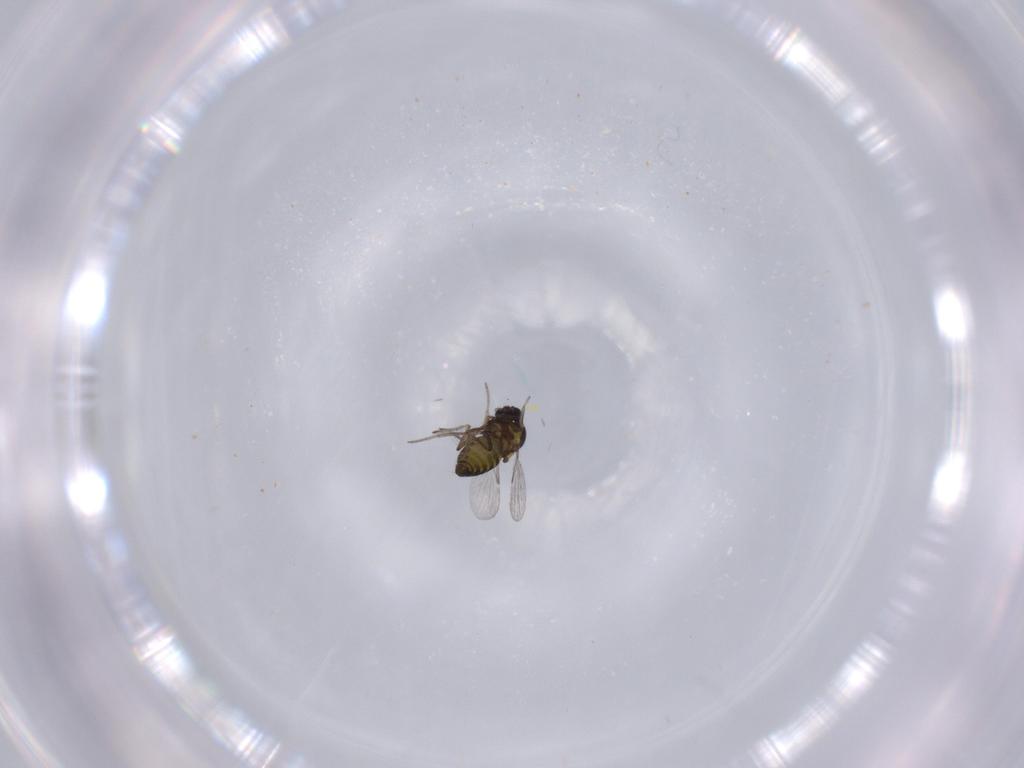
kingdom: Animalia
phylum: Arthropoda
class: Insecta
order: Diptera
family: Ceratopogonidae
